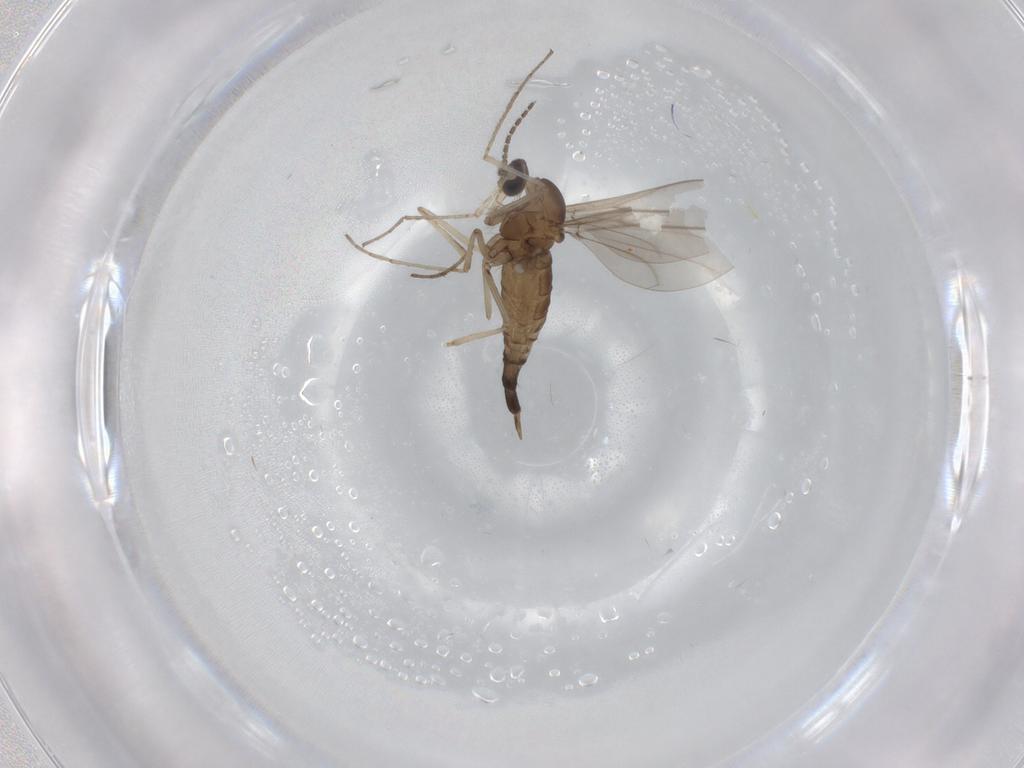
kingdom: Animalia
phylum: Arthropoda
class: Insecta
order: Diptera
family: Cecidomyiidae
